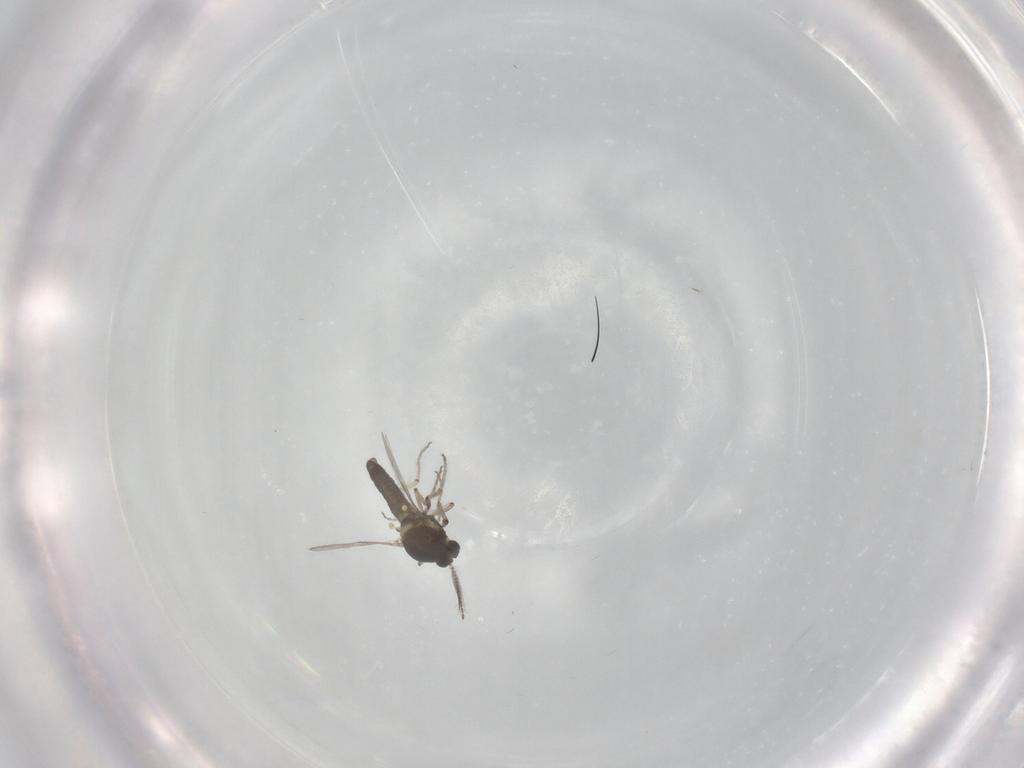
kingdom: Animalia
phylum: Arthropoda
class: Insecta
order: Diptera
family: Ceratopogonidae
